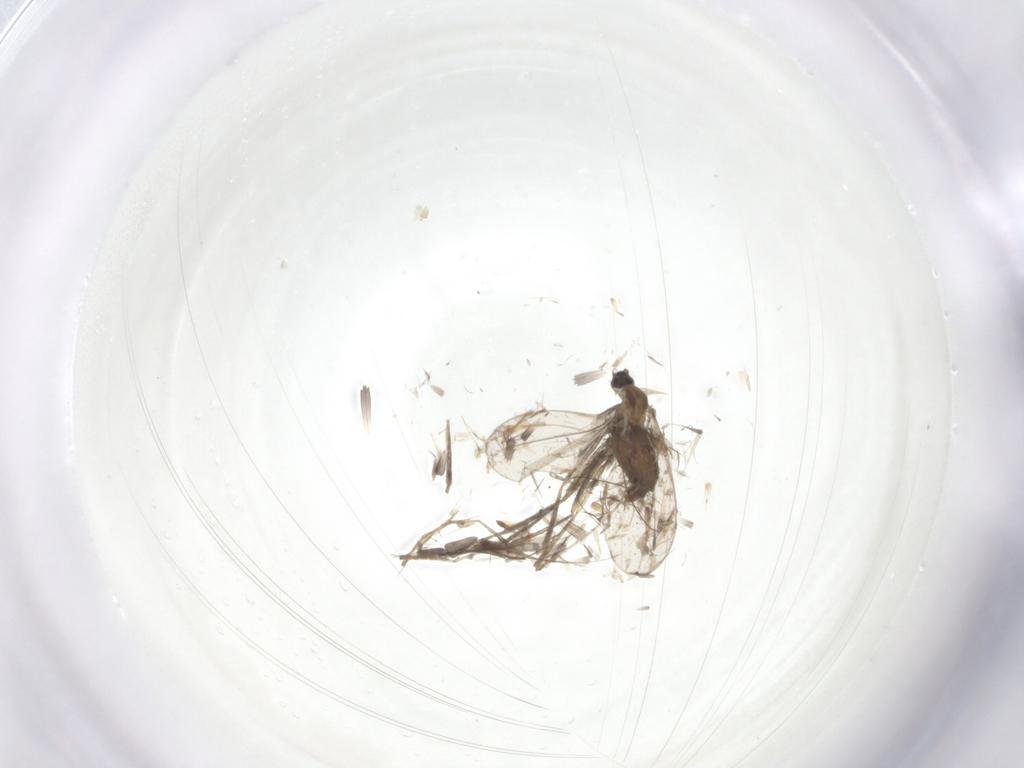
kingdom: Animalia
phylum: Arthropoda
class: Insecta
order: Diptera
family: Cecidomyiidae
